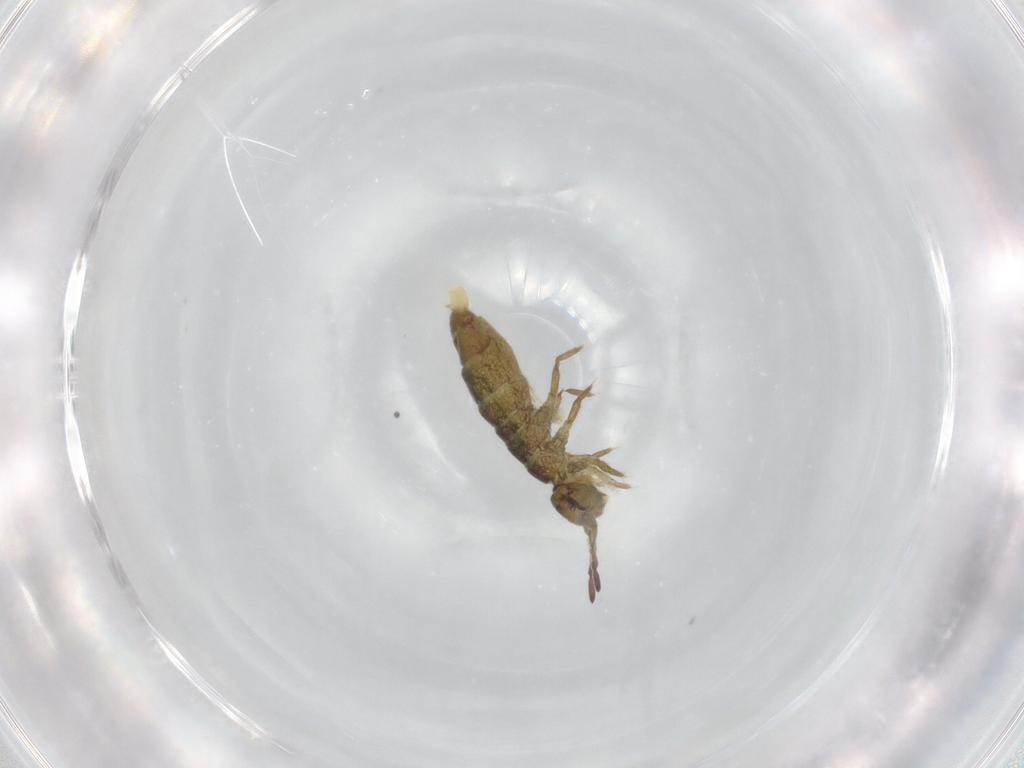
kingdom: Animalia
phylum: Arthropoda
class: Collembola
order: Entomobryomorpha
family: Isotomidae
